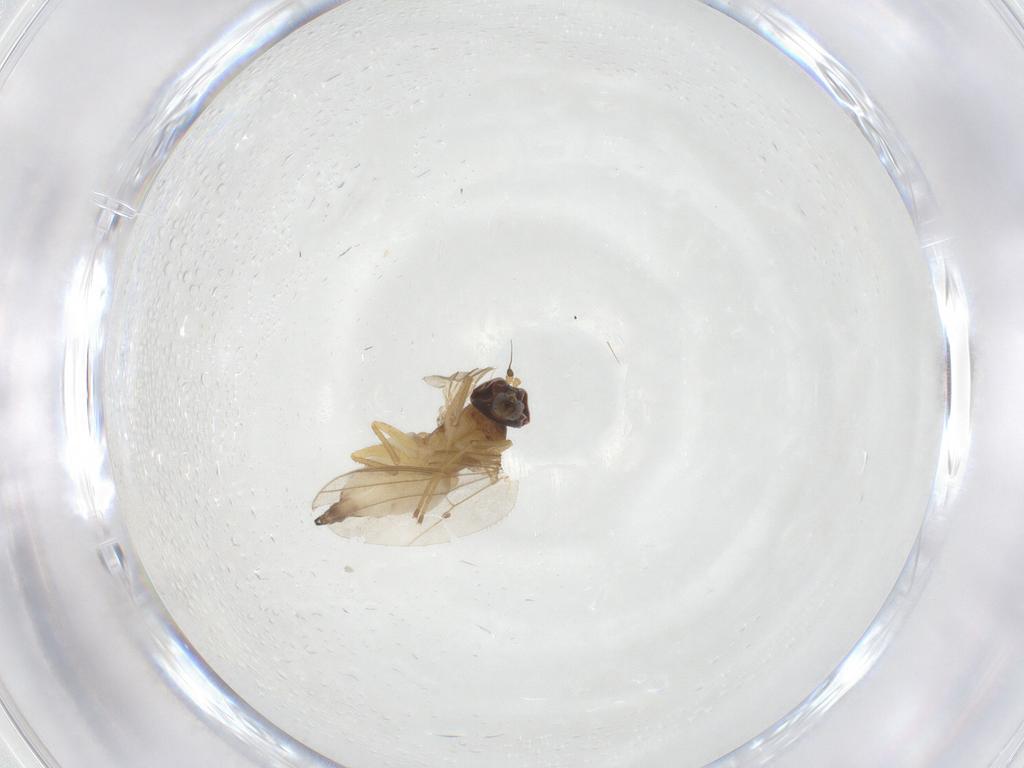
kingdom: Animalia
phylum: Arthropoda
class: Insecta
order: Diptera
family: Dolichopodidae
